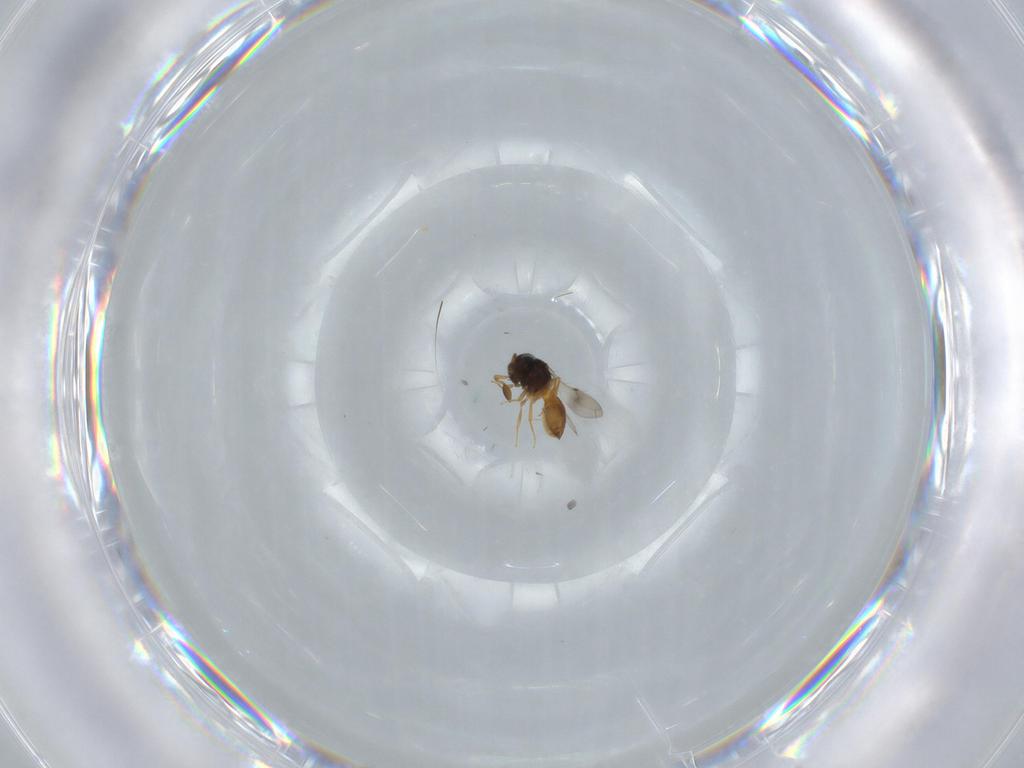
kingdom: Animalia
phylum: Arthropoda
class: Insecta
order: Hymenoptera
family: Scelionidae
